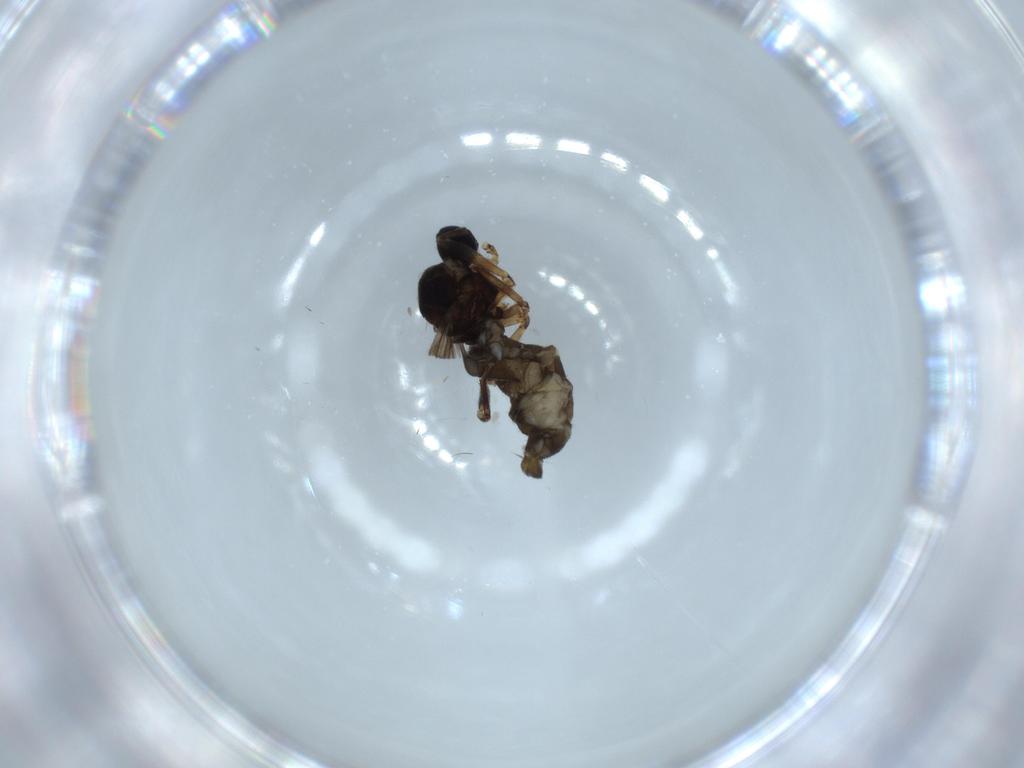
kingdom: Animalia
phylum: Arthropoda
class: Insecta
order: Diptera
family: Sciaridae
